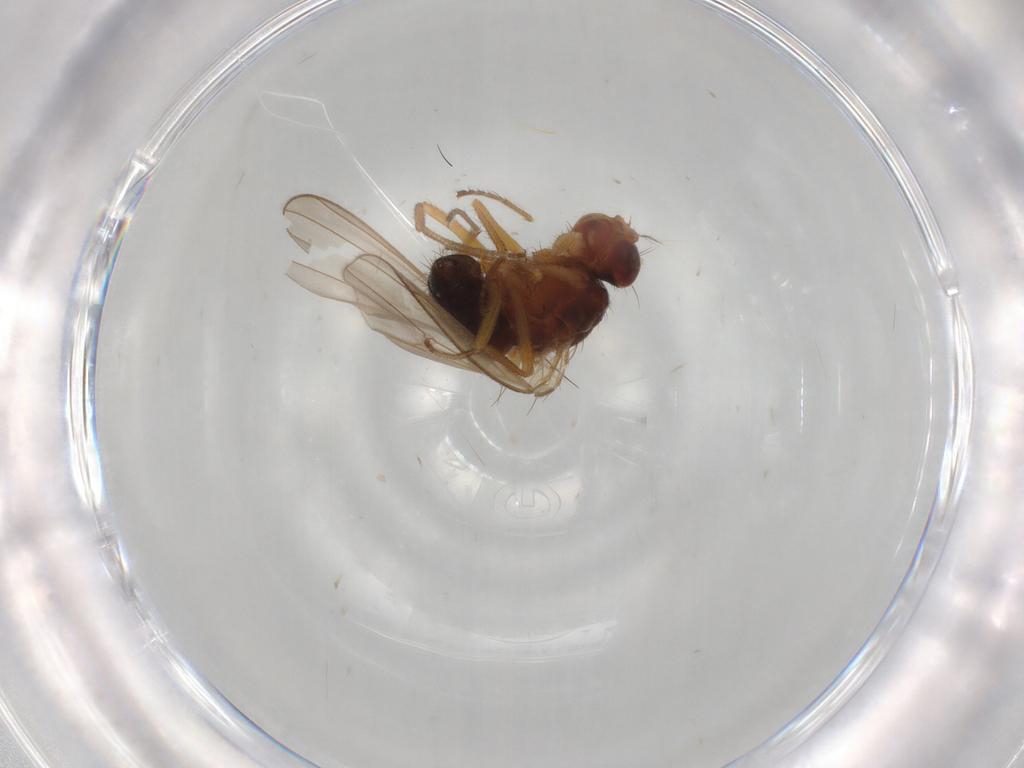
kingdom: Animalia
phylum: Arthropoda
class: Insecta
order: Diptera
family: Drosophilidae
